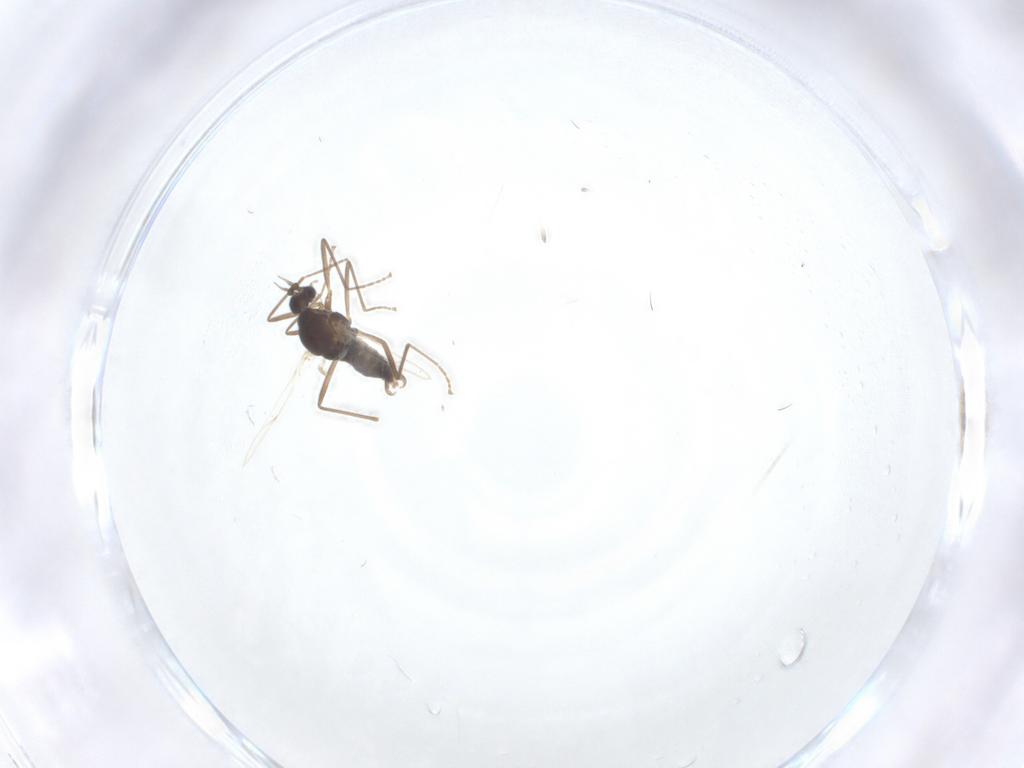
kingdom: Animalia
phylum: Arthropoda
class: Insecta
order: Diptera
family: Cecidomyiidae
